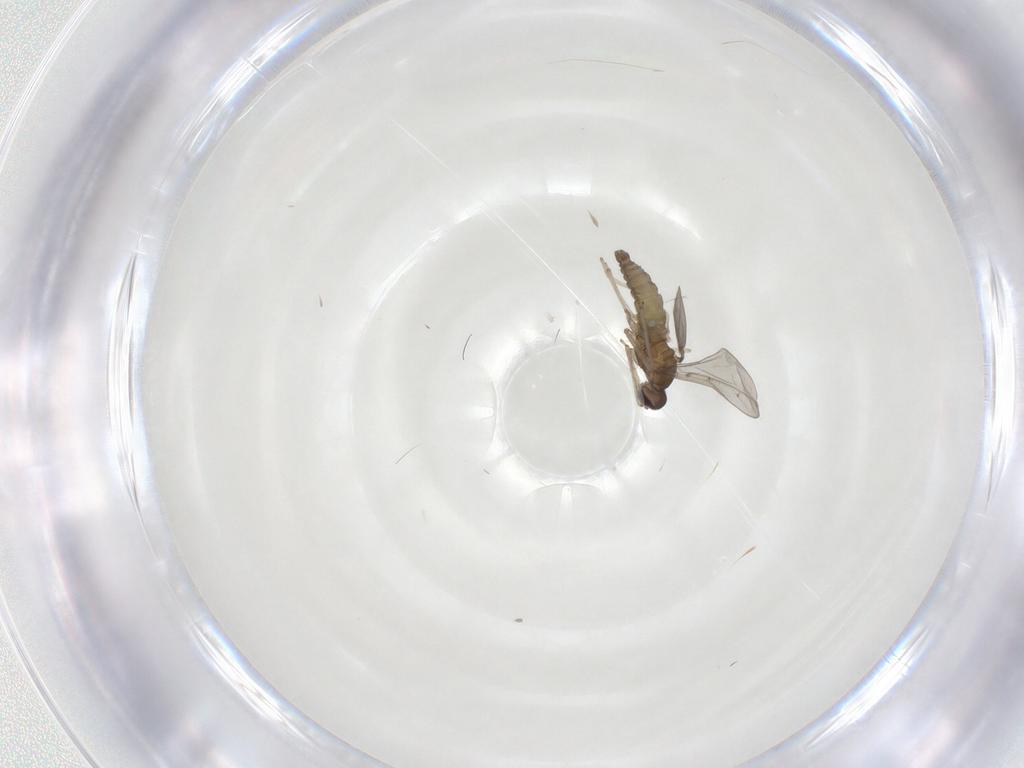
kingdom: Animalia
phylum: Arthropoda
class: Insecta
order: Diptera
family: Cecidomyiidae
